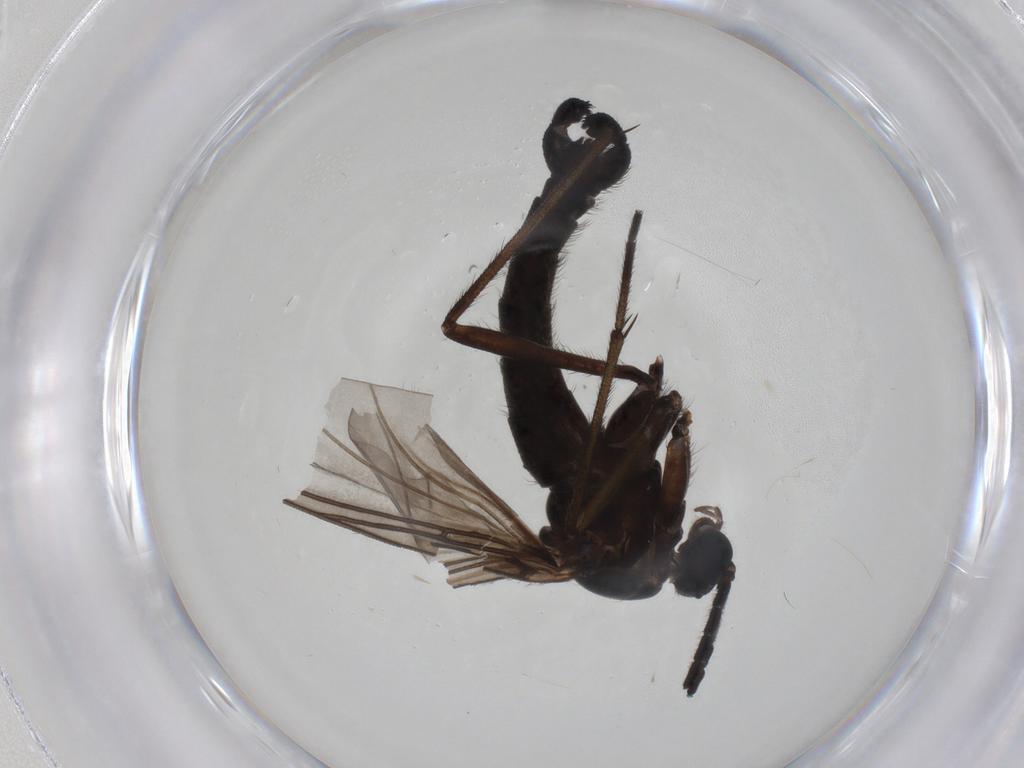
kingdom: Animalia
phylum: Arthropoda
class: Insecta
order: Diptera
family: Sciaridae
